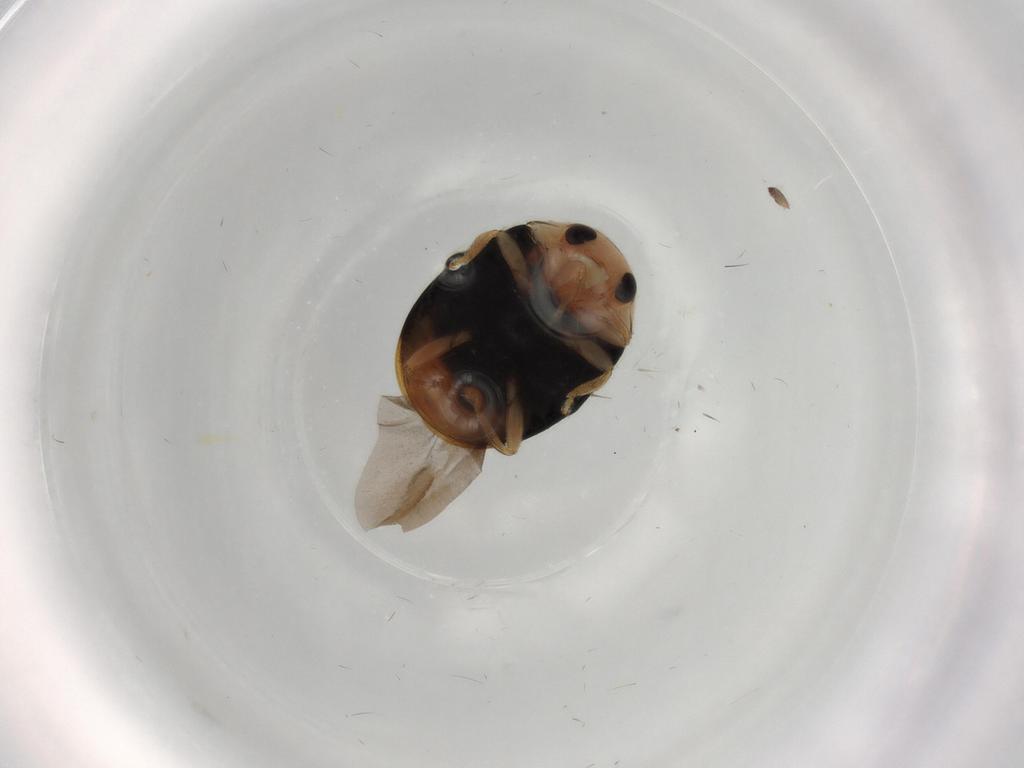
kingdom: Animalia
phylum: Arthropoda
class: Insecta
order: Coleoptera
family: Coccinellidae
